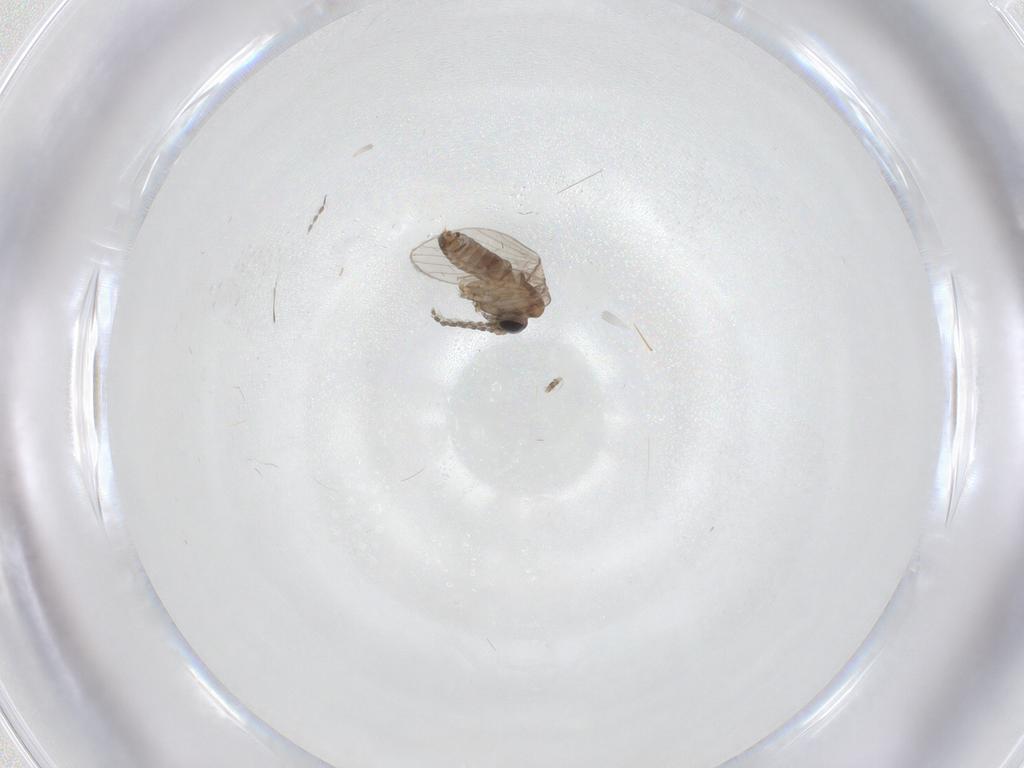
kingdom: Animalia
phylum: Arthropoda
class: Insecta
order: Diptera
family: Psychodidae
